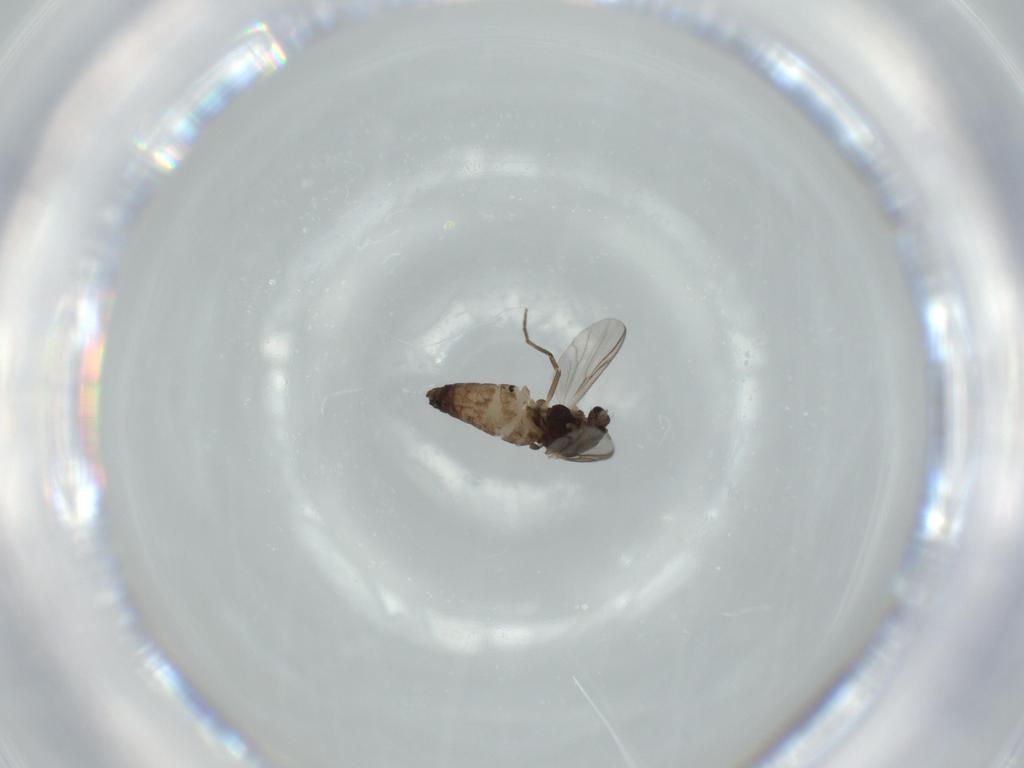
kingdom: Animalia
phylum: Arthropoda
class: Insecta
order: Diptera
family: Chironomidae
